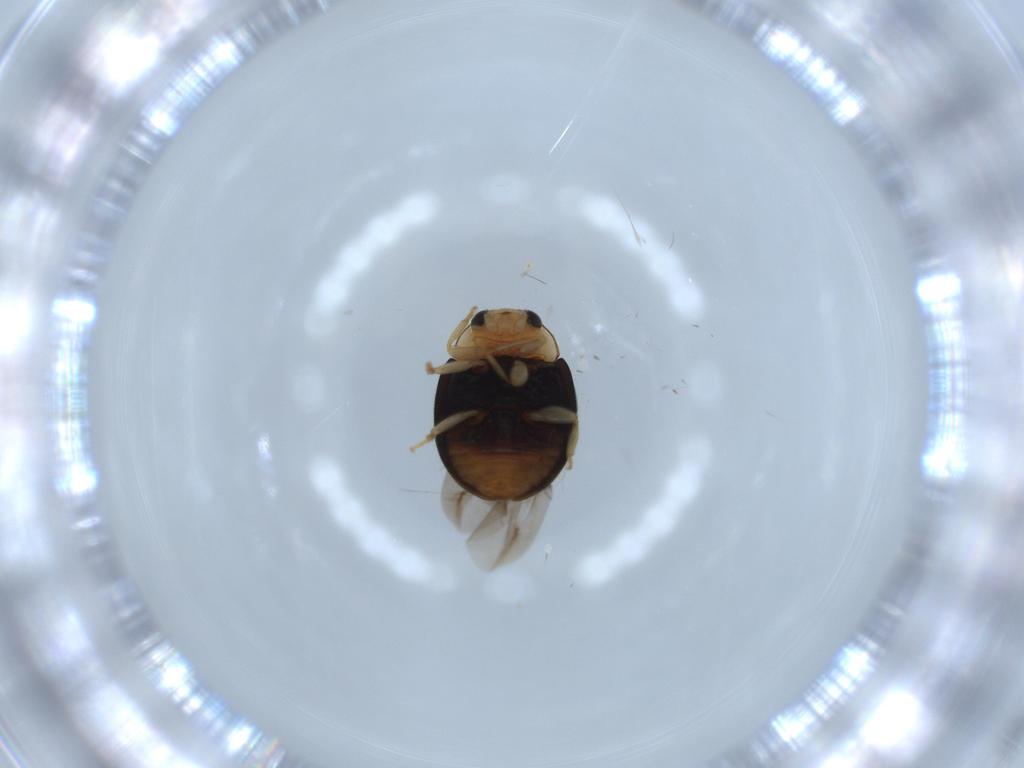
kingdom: Animalia
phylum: Arthropoda
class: Insecta
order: Coleoptera
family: Chrysomelidae
